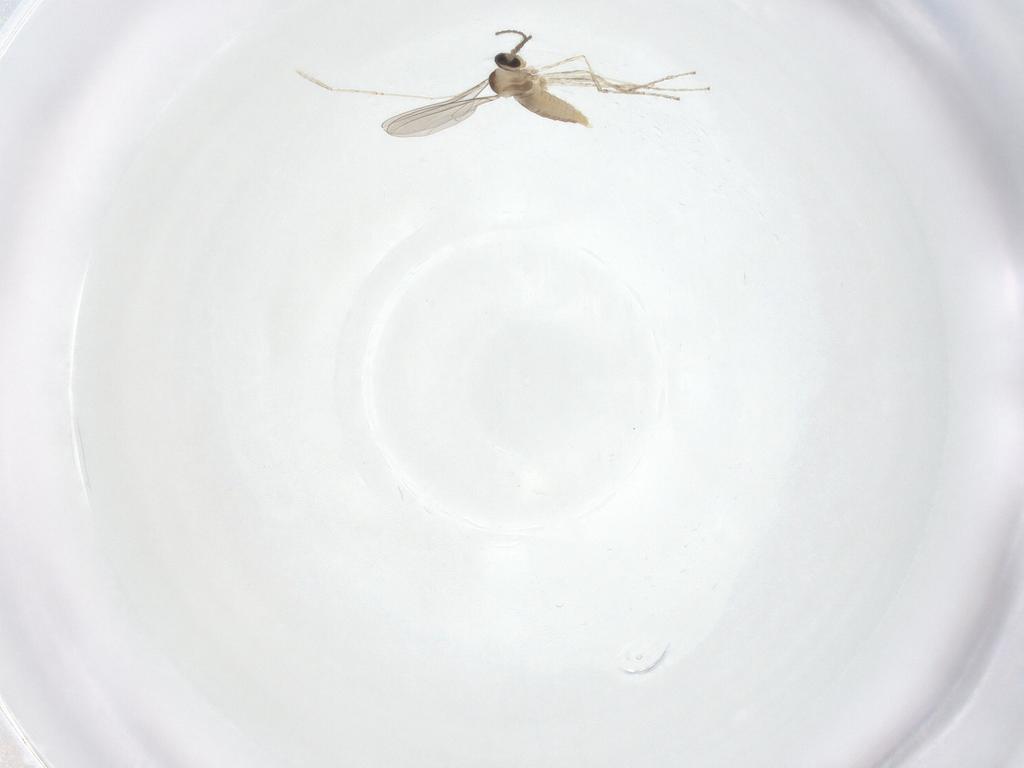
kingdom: Animalia
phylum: Arthropoda
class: Insecta
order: Diptera
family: Cecidomyiidae
